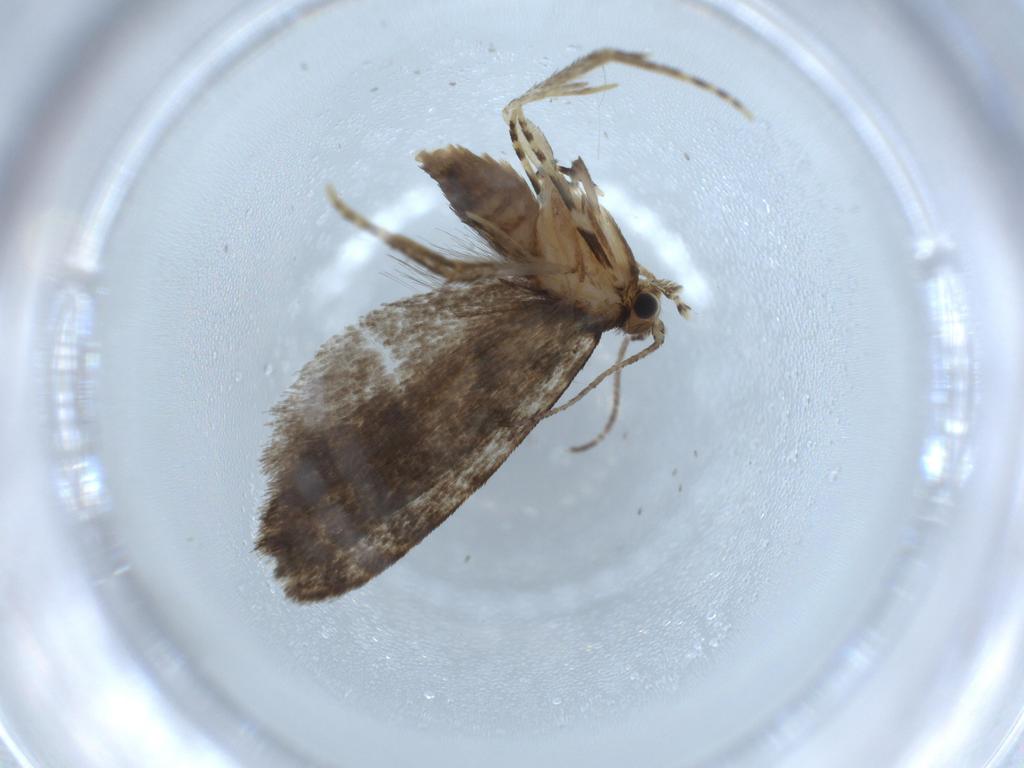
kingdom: Animalia
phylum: Arthropoda
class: Insecta
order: Lepidoptera
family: Tineidae
